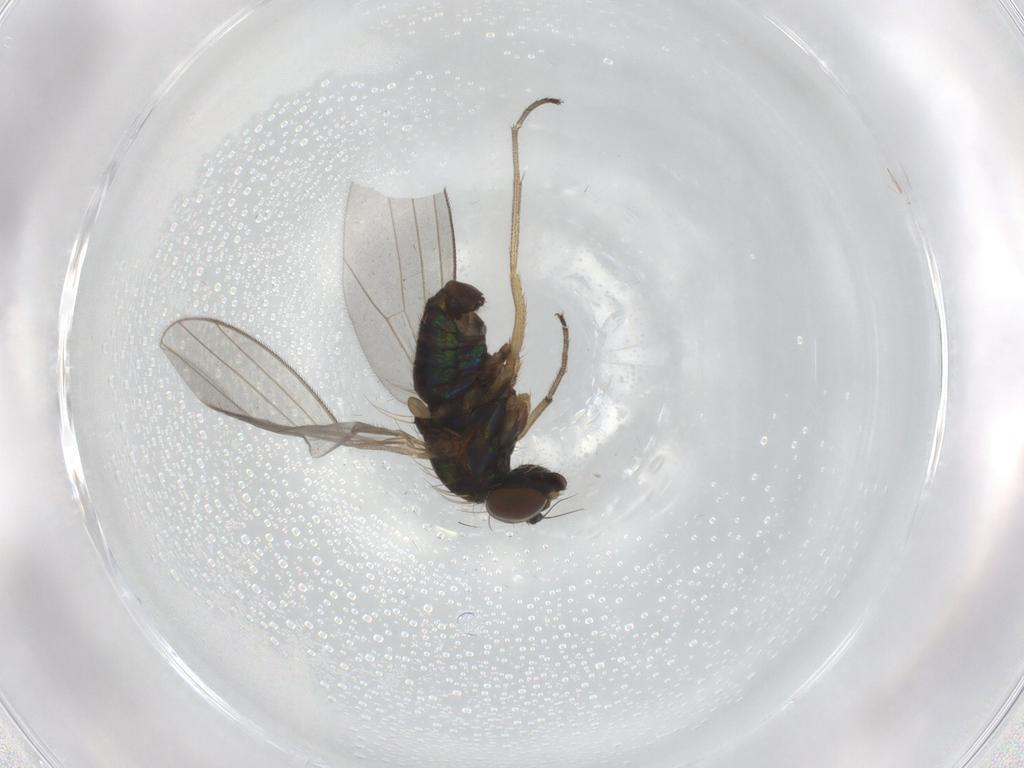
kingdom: Animalia
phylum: Arthropoda
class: Insecta
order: Diptera
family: Dolichopodidae
